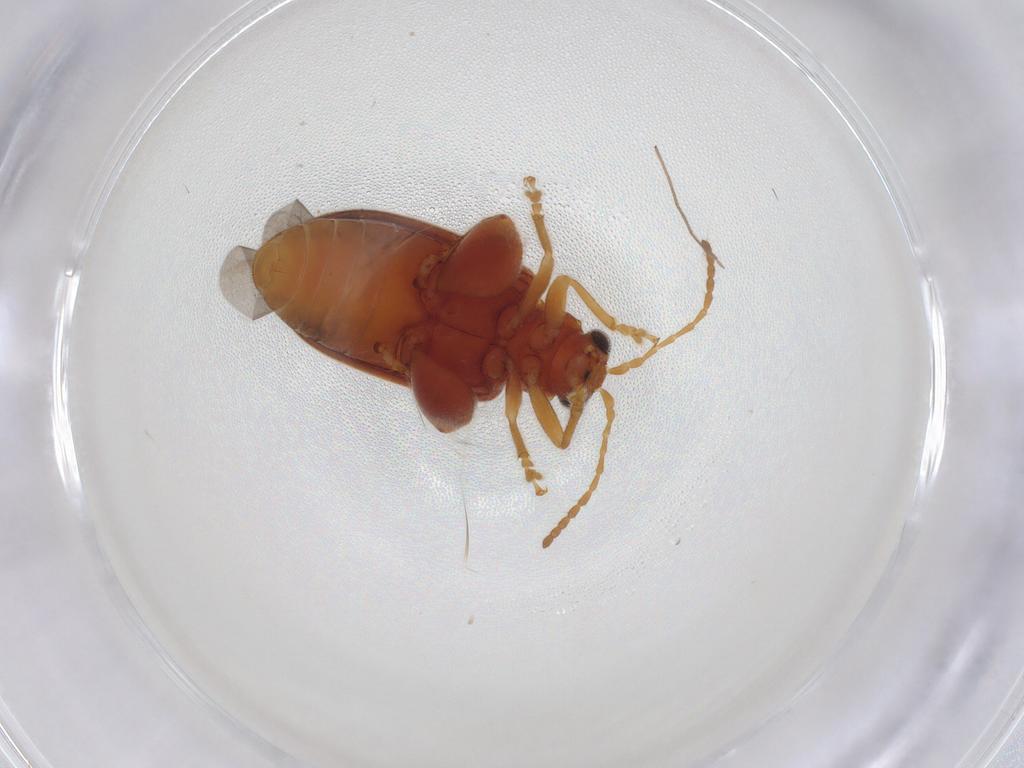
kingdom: Animalia
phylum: Arthropoda
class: Insecta
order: Coleoptera
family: Chrysomelidae
